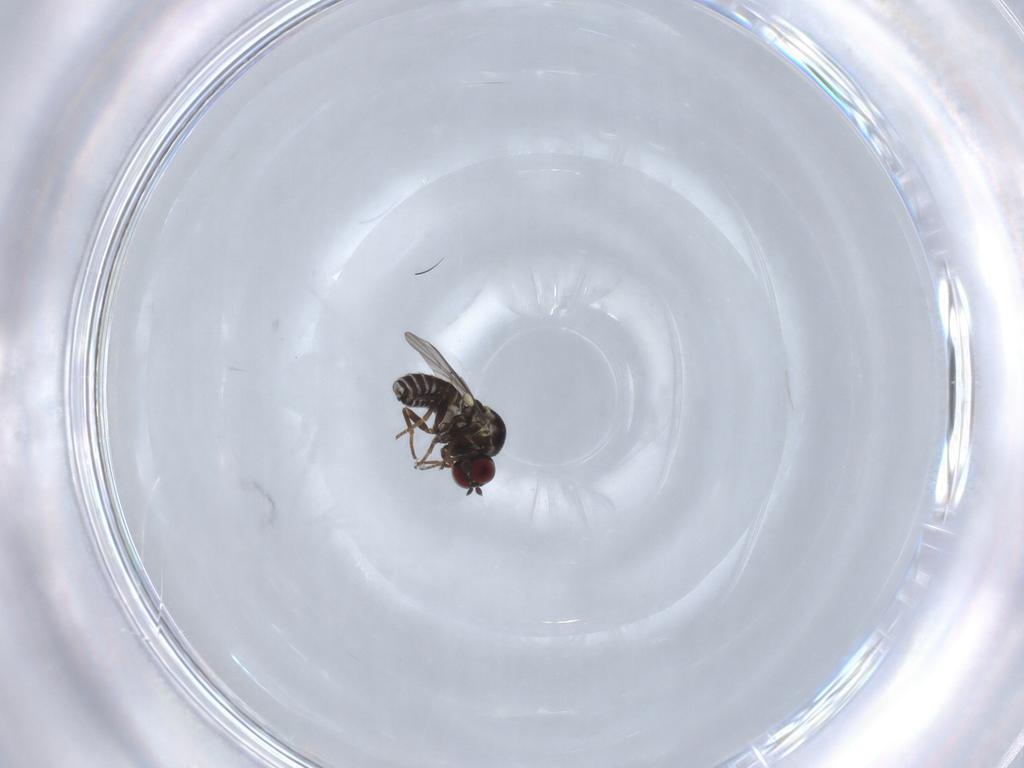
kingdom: Animalia
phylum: Arthropoda
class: Insecta
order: Diptera
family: Mythicomyiidae
